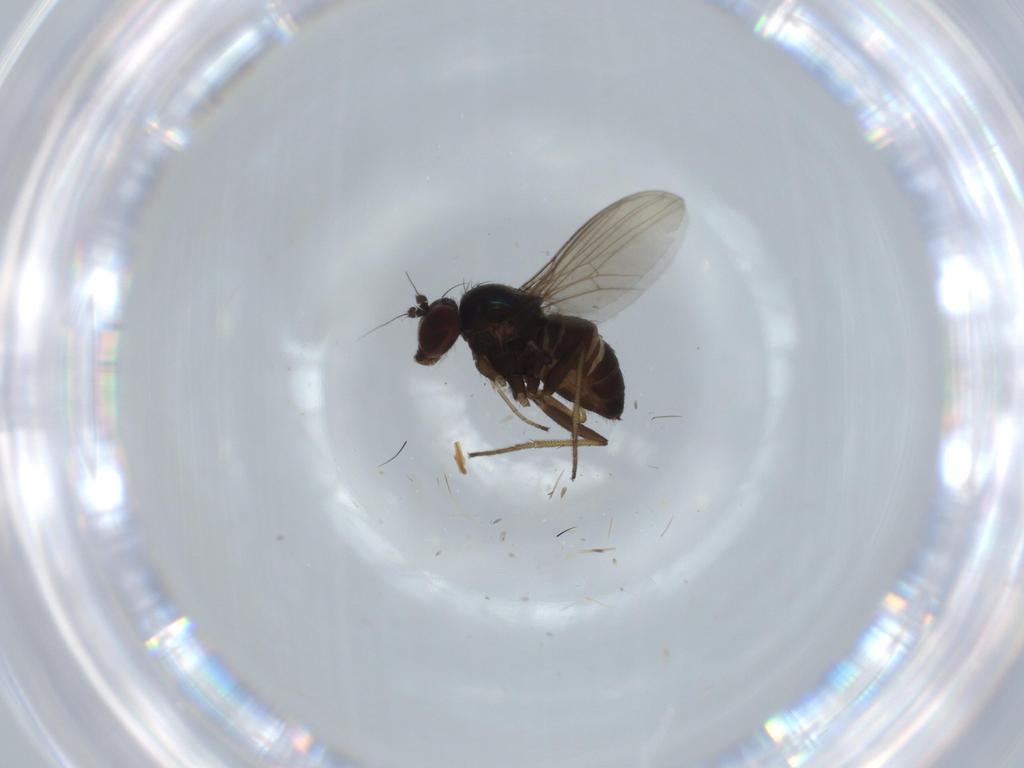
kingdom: Animalia
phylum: Arthropoda
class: Insecta
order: Diptera
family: Dolichopodidae
